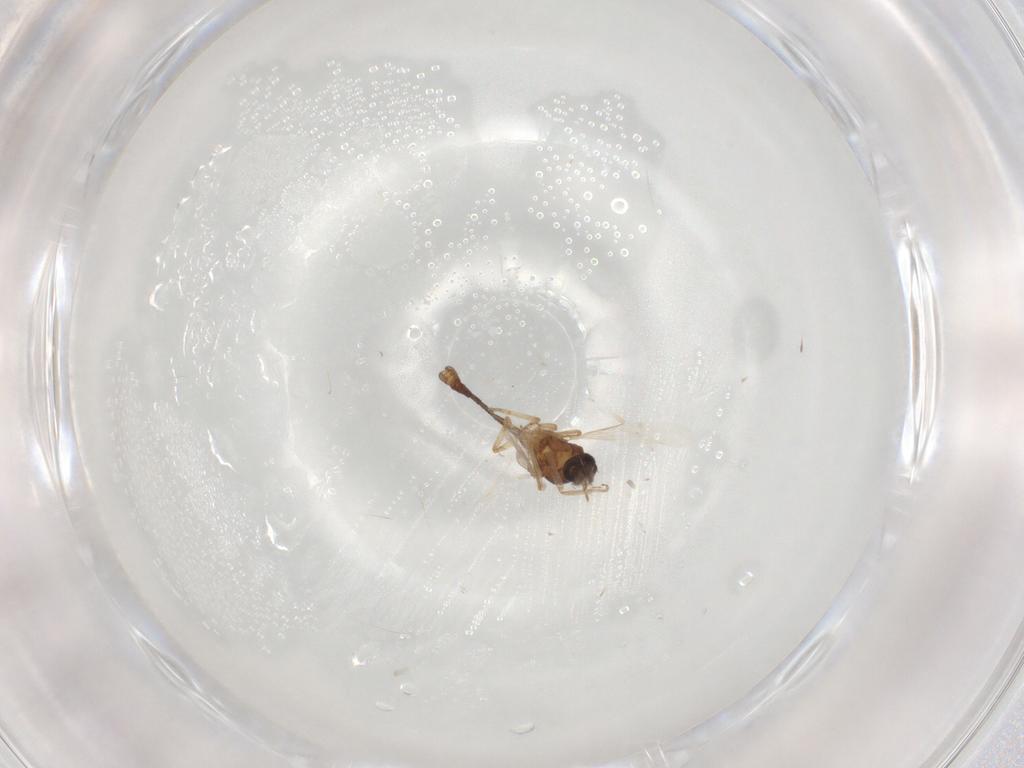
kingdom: Animalia
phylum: Arthropoda
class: Insecta
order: Diptera
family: Ceratopogonidae
